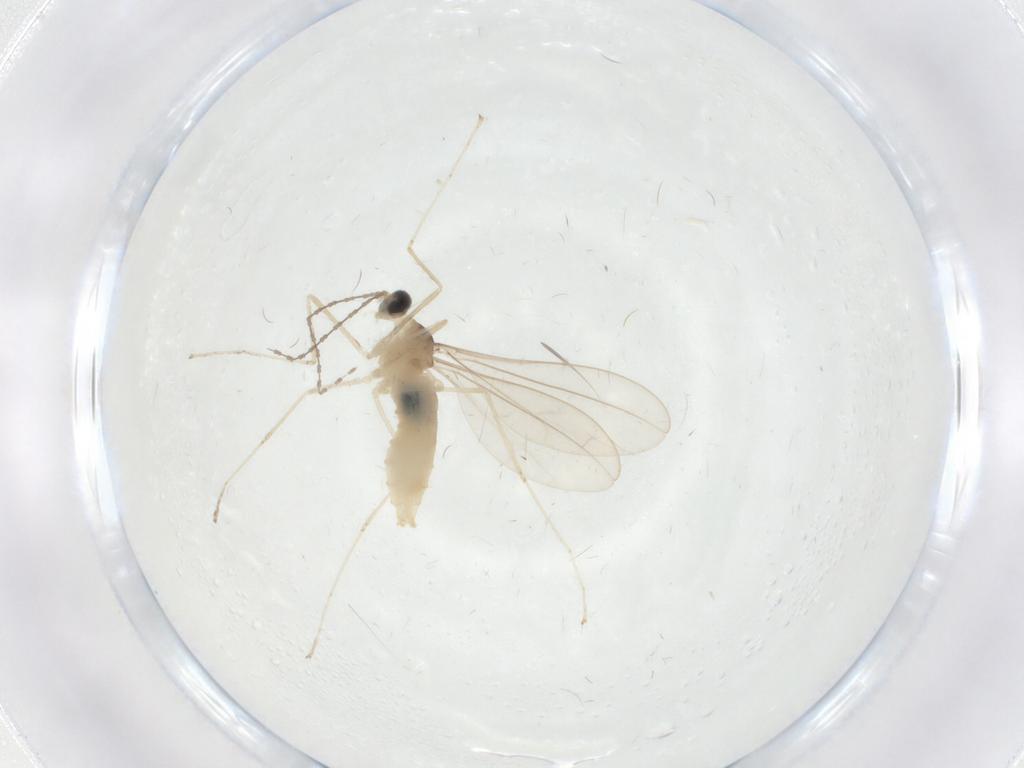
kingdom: Animalia
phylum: Arthropoda
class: Insecta
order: Diptera
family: Cecidomyiidae
